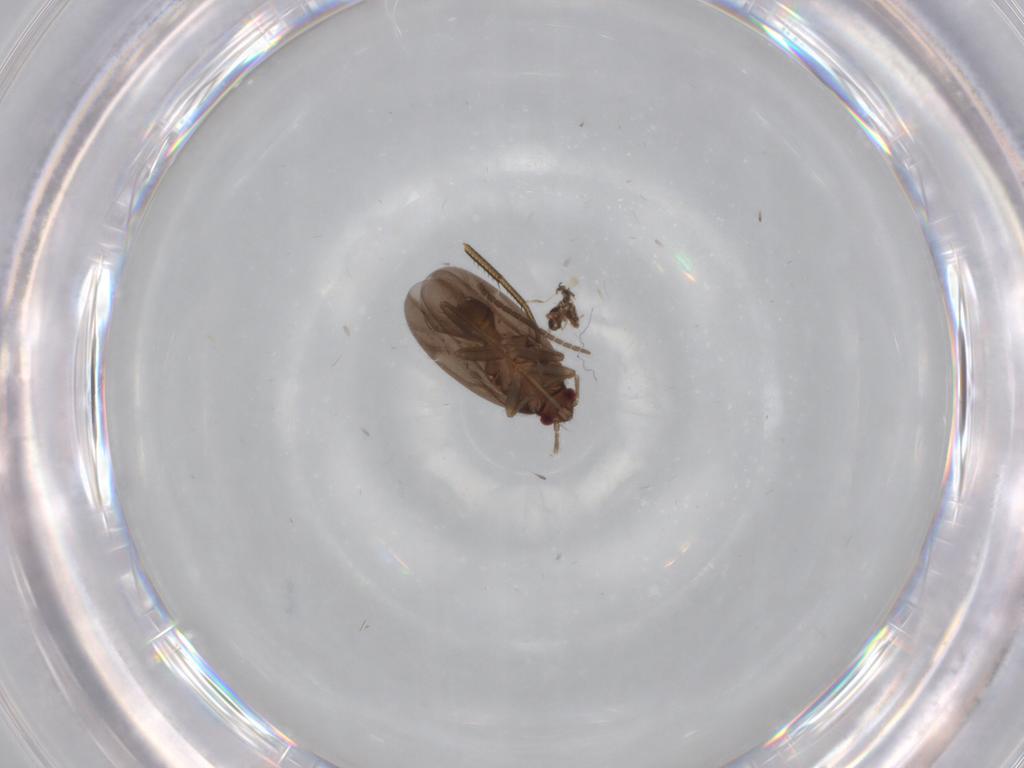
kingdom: Animalia
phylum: Arthropoda
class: Insecta
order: Hemiptera
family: Ceratocombidae
